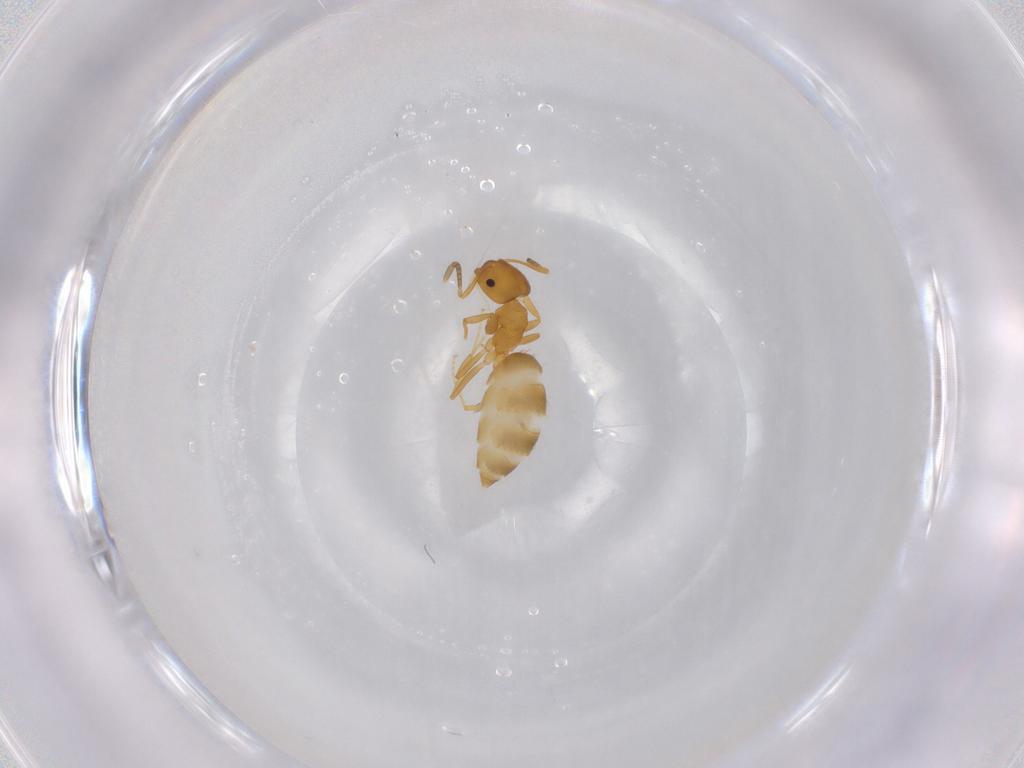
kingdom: Animalia
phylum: Arthropoda
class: Insecta
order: Hymenoptera
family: Formicidae
